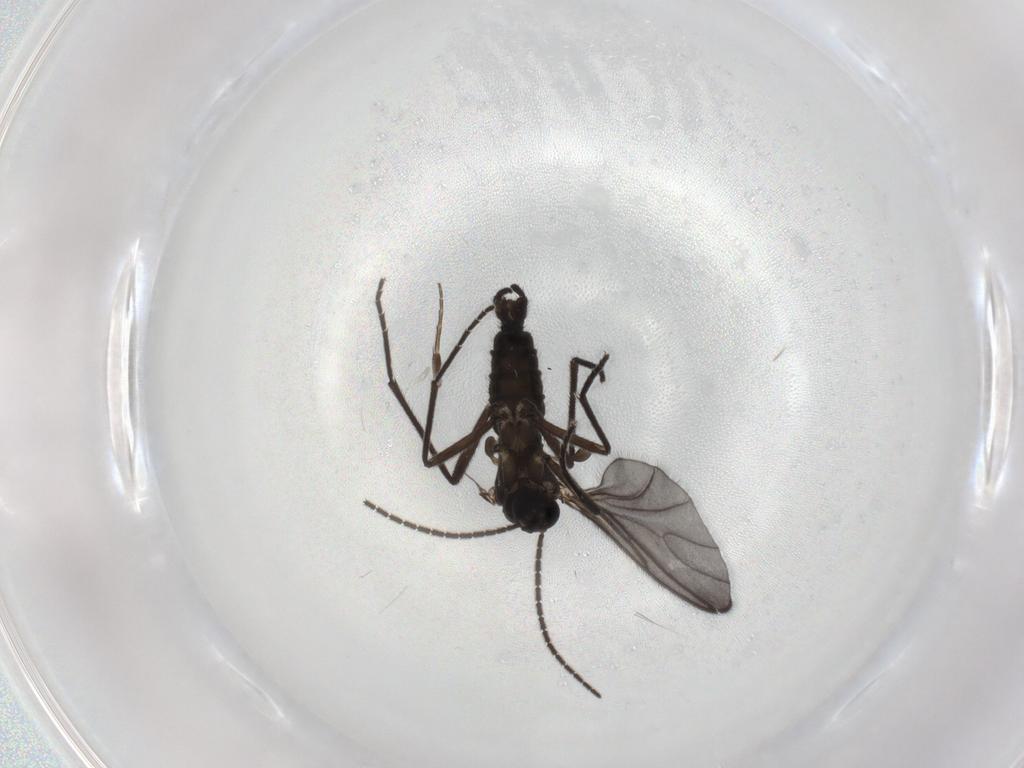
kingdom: Animalia
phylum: Arthropoda
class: Insecta
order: Diptera
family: Sciaridae
